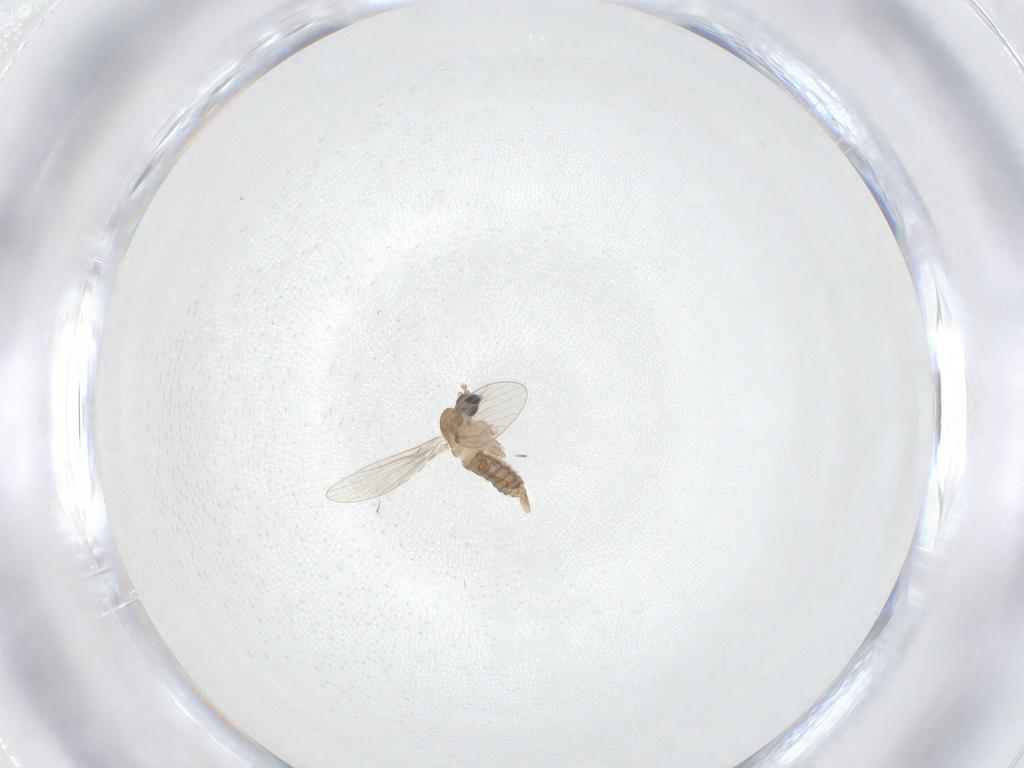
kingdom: Animalia
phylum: Arthropoda
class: Insecta
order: Diptera
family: Psychodidae
